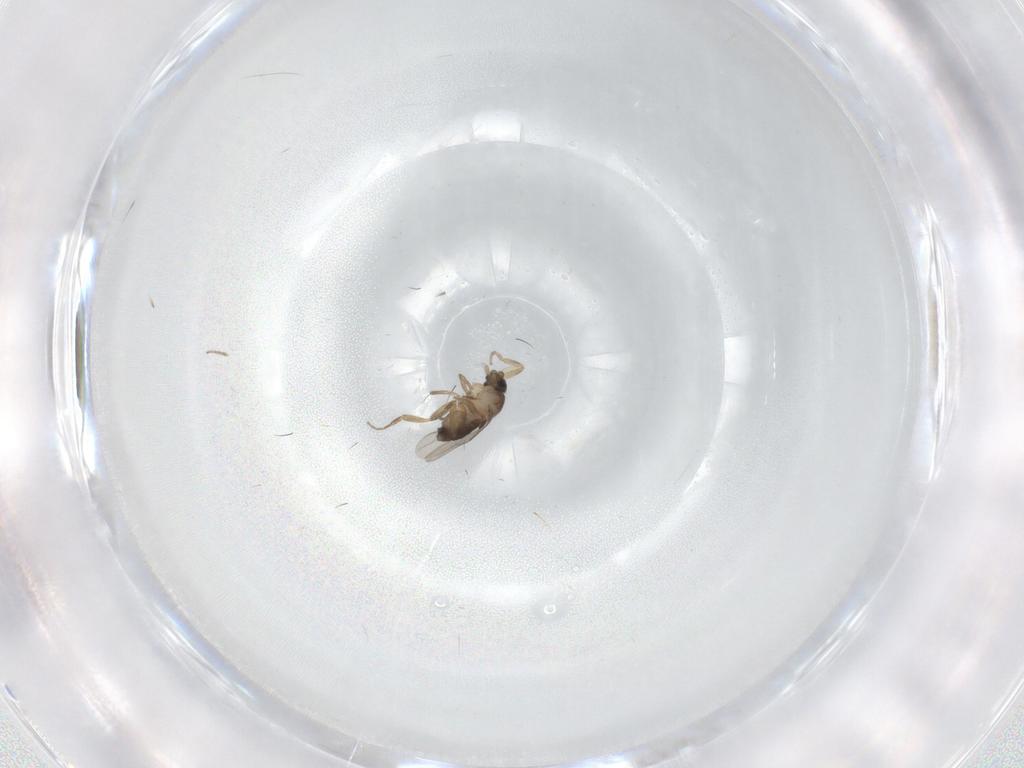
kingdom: Animalia
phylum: Arthropoda
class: Insecta
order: Diptera
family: Phoridae
